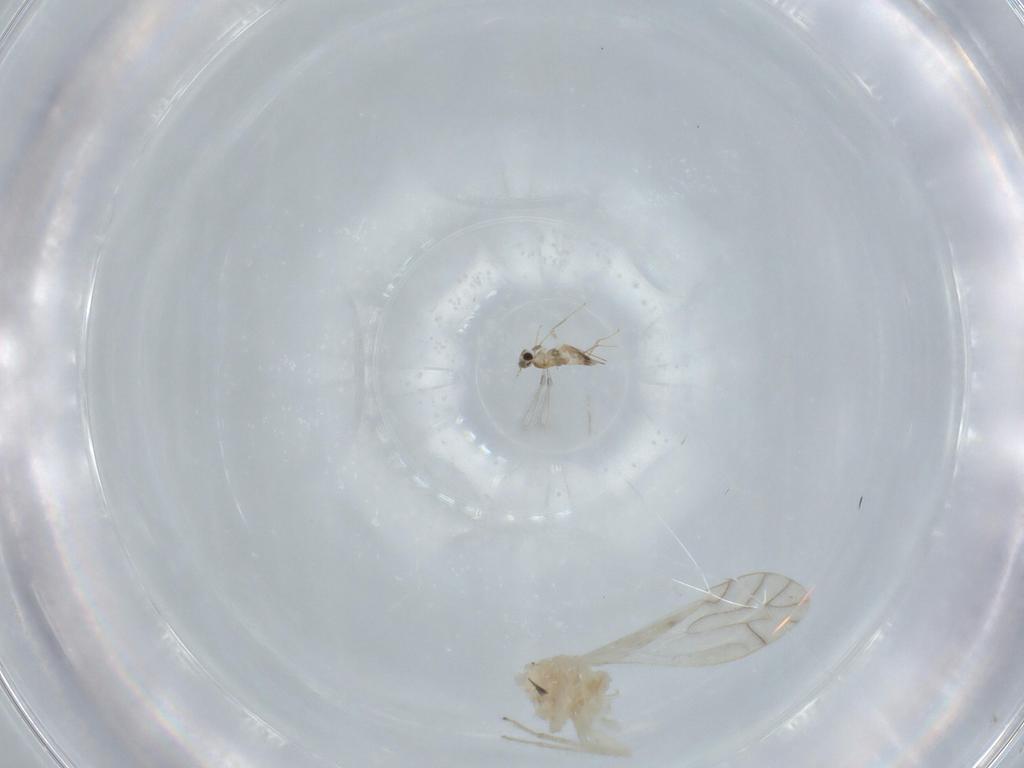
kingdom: Animalia
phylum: Arthropoda
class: Insecta
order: Hymenoptera
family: Mymaridae
